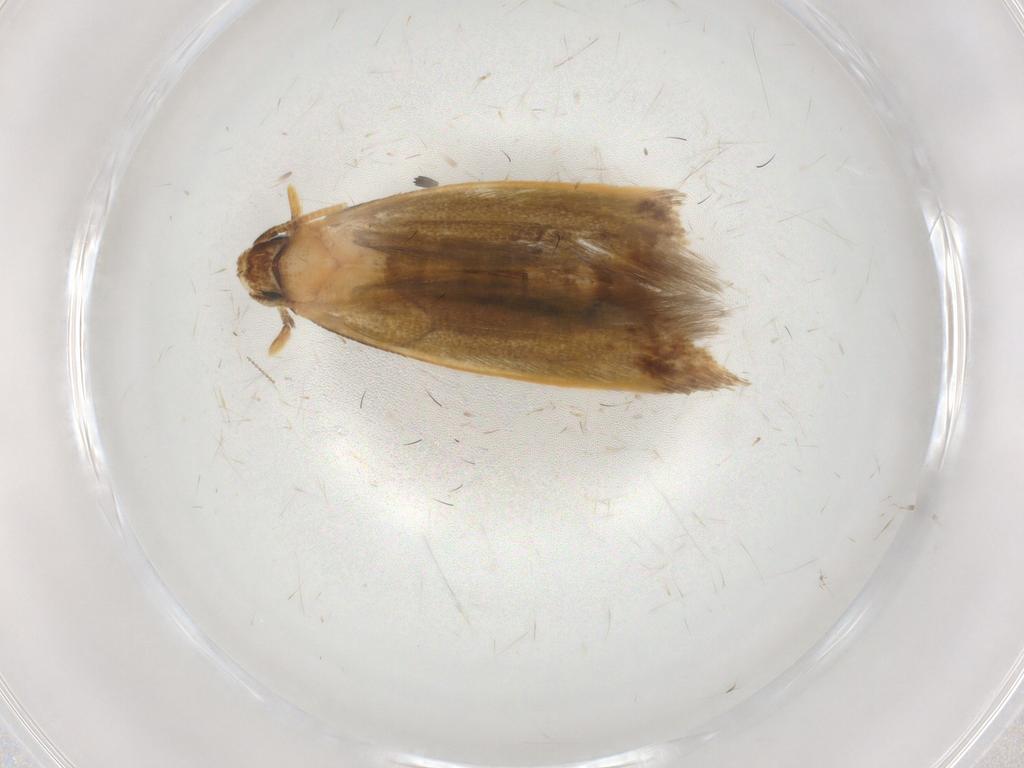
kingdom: Animalia
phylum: Arthropoda
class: Insecta
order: Lepidoptera
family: Tineidae
